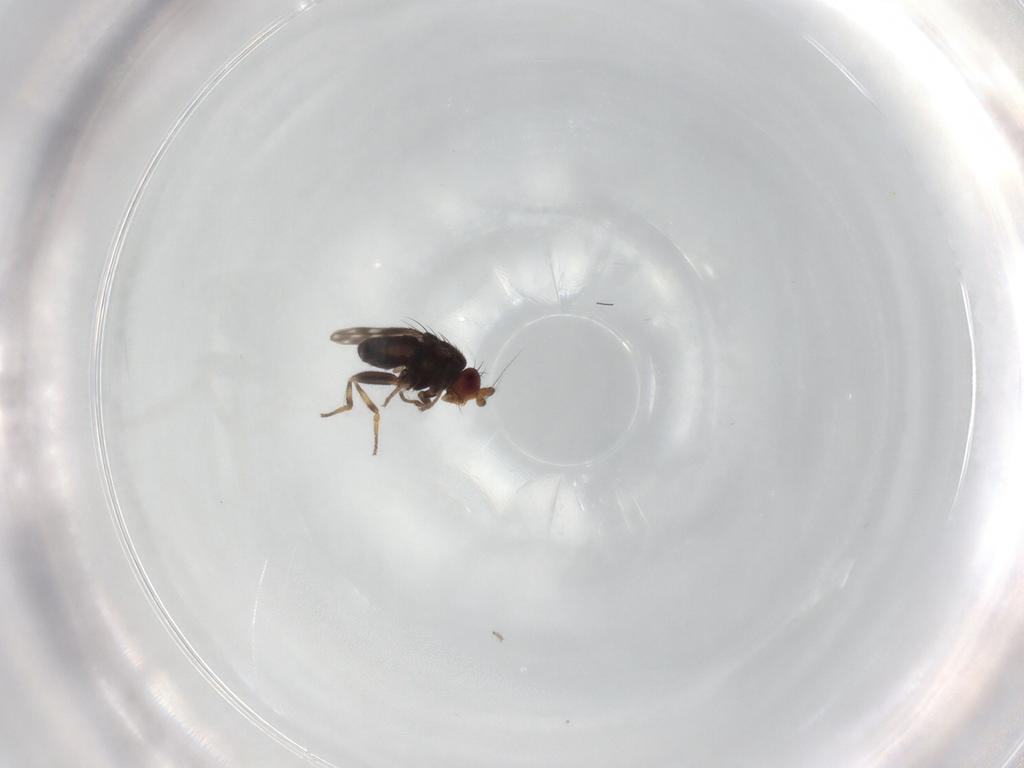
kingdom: Animalia
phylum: Arthropoda
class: Insecta
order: Diptera
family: Sphaeroceridae
